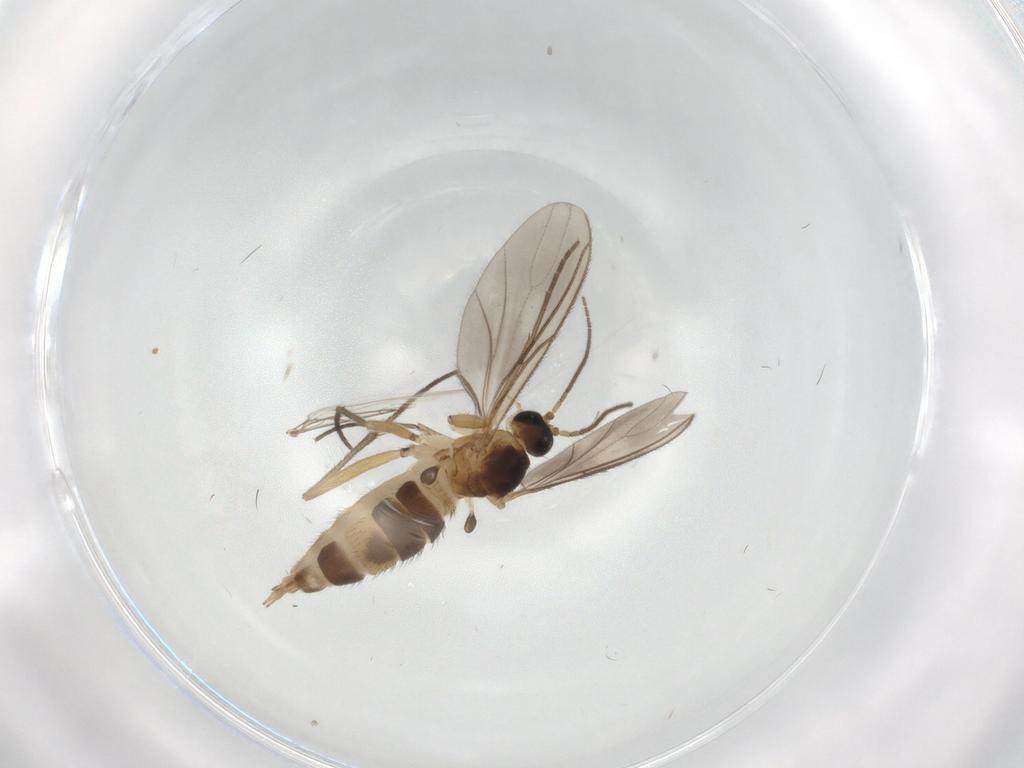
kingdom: Animalia
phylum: Arthropoda
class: Insecta
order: Diptera
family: Sciaridae
